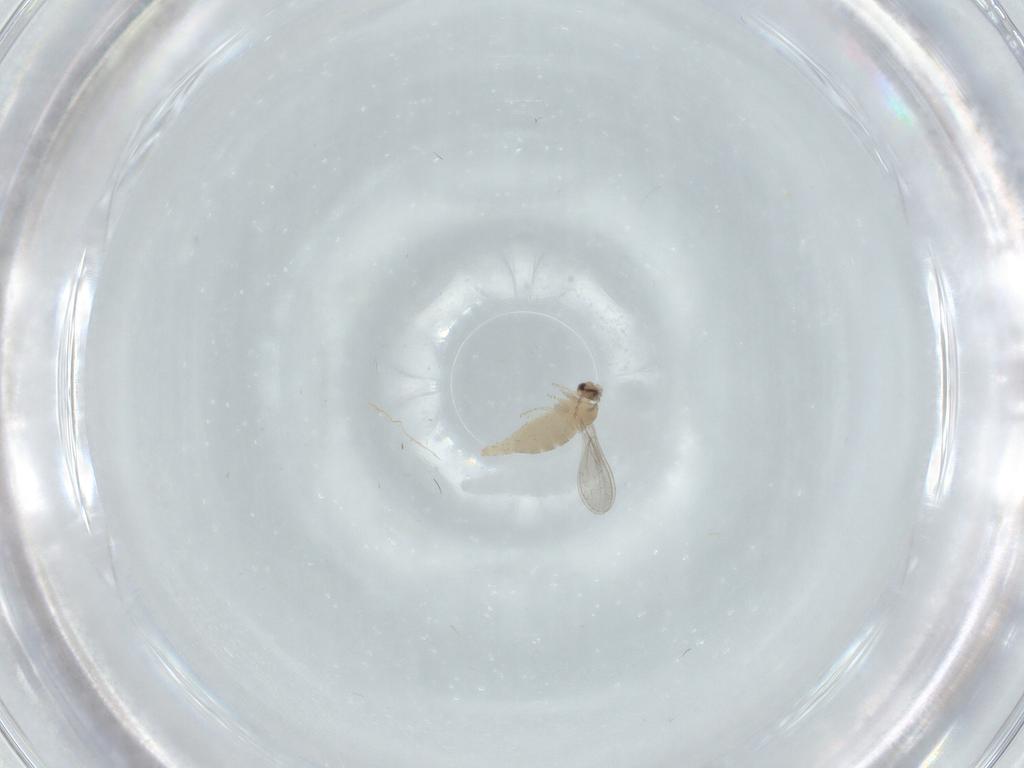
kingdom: Animalia
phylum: Arthropoda
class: Insecta
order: Diptera
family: Cecidomyiidae
